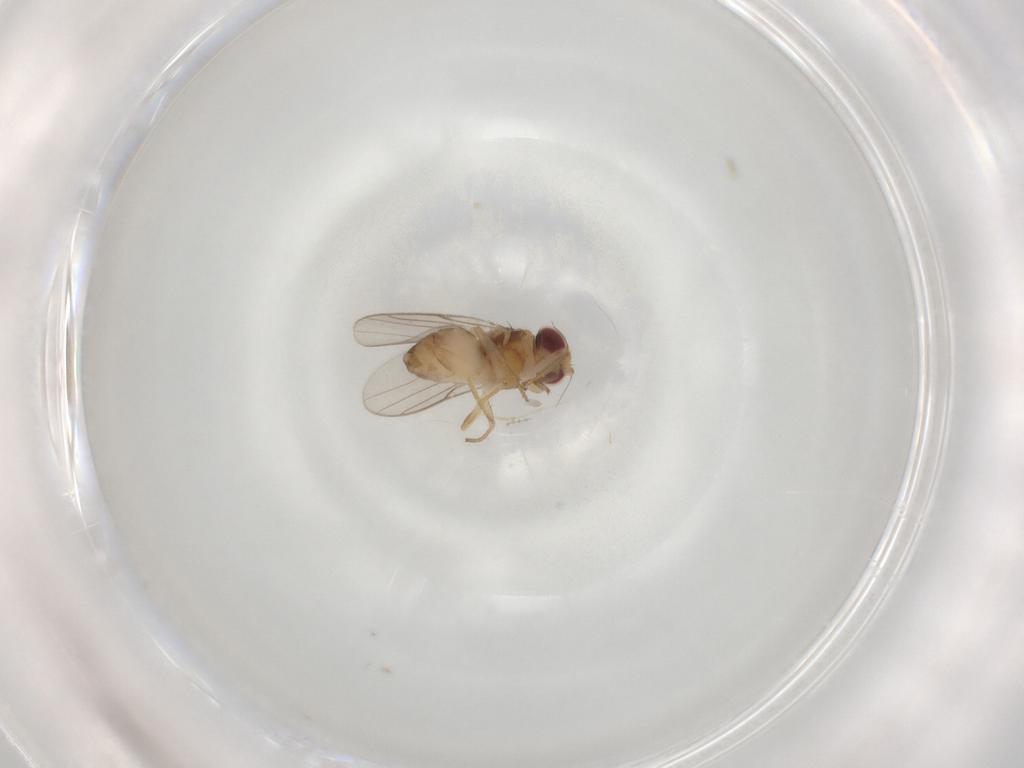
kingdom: Animalia
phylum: Arthropoda
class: Insecta
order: Diptera
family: Chloropidae
